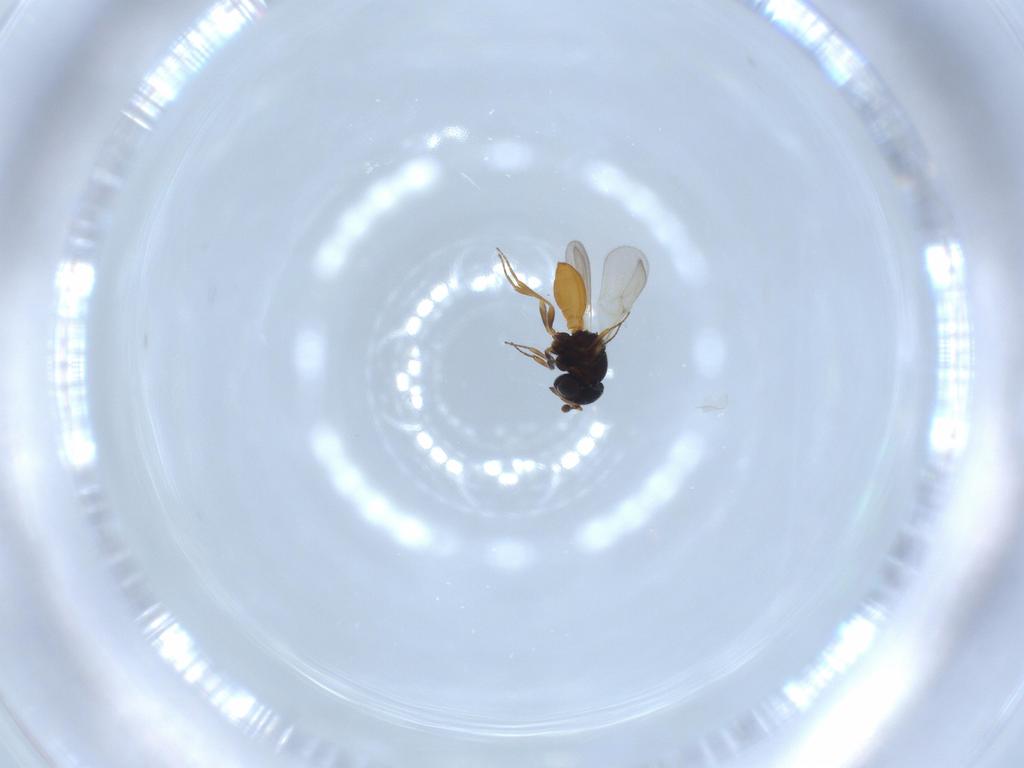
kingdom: Animalia
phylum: Arthropoda
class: Insecta
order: Hymenoptera
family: Scelionidae
